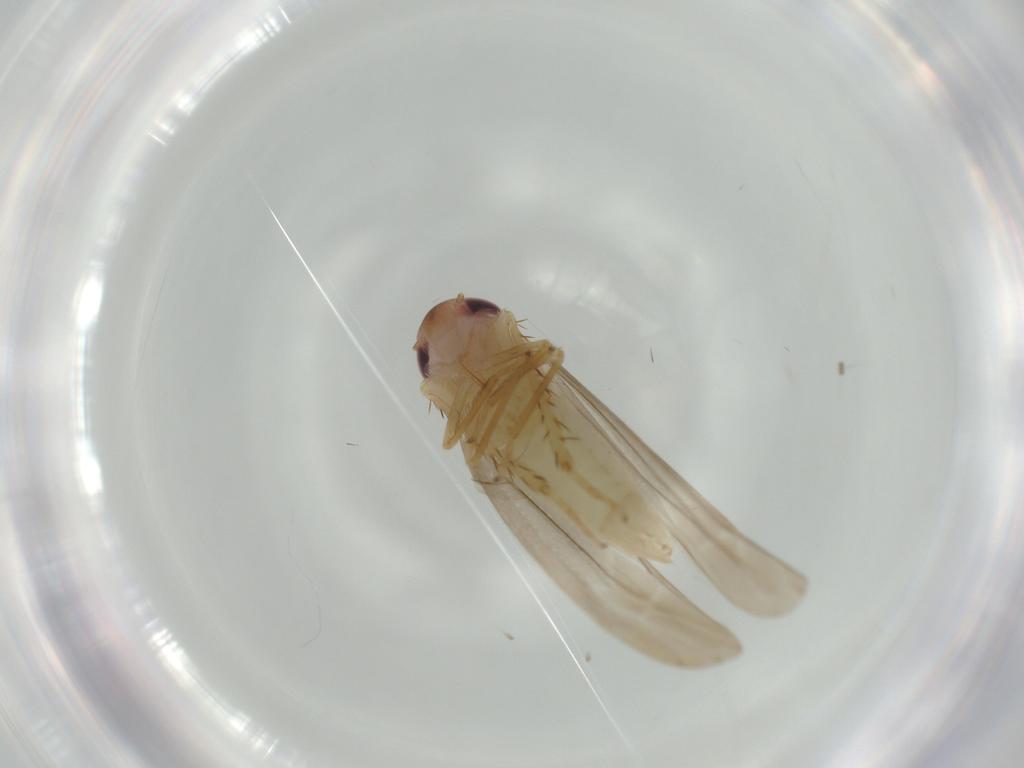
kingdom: Animalia
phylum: Arthropoda
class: Insecta
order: Hemiptera
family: Cicadellidae
